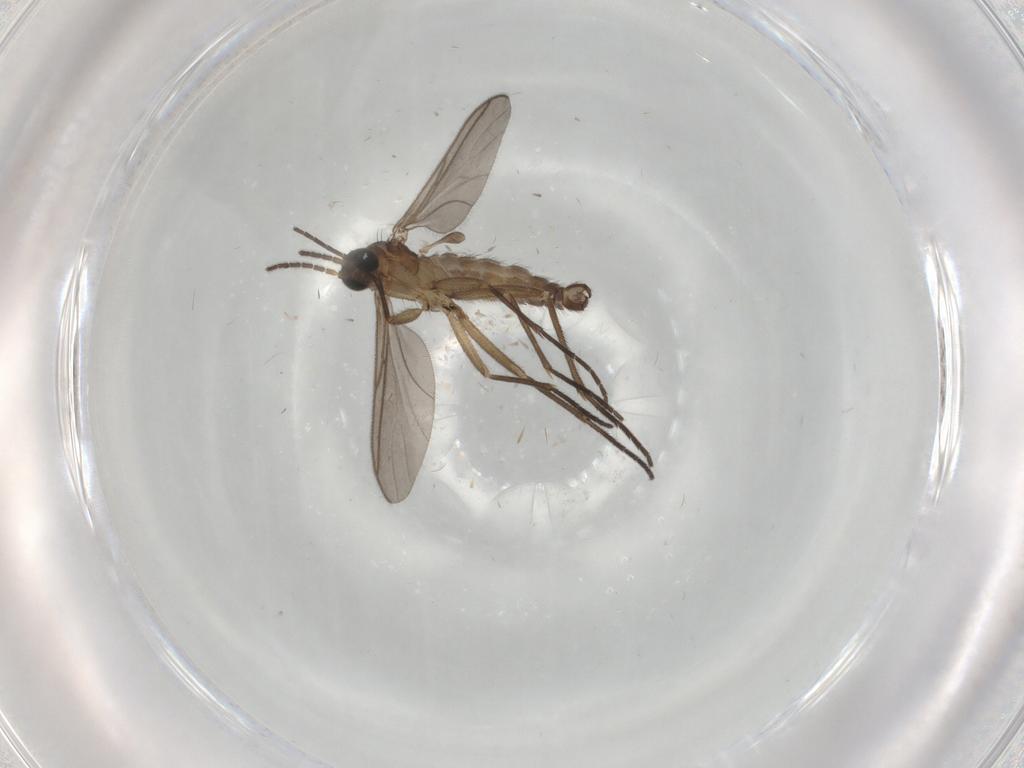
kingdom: Animalia
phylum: Arthropoda
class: Insecta
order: Diptera
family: Sciaridae
